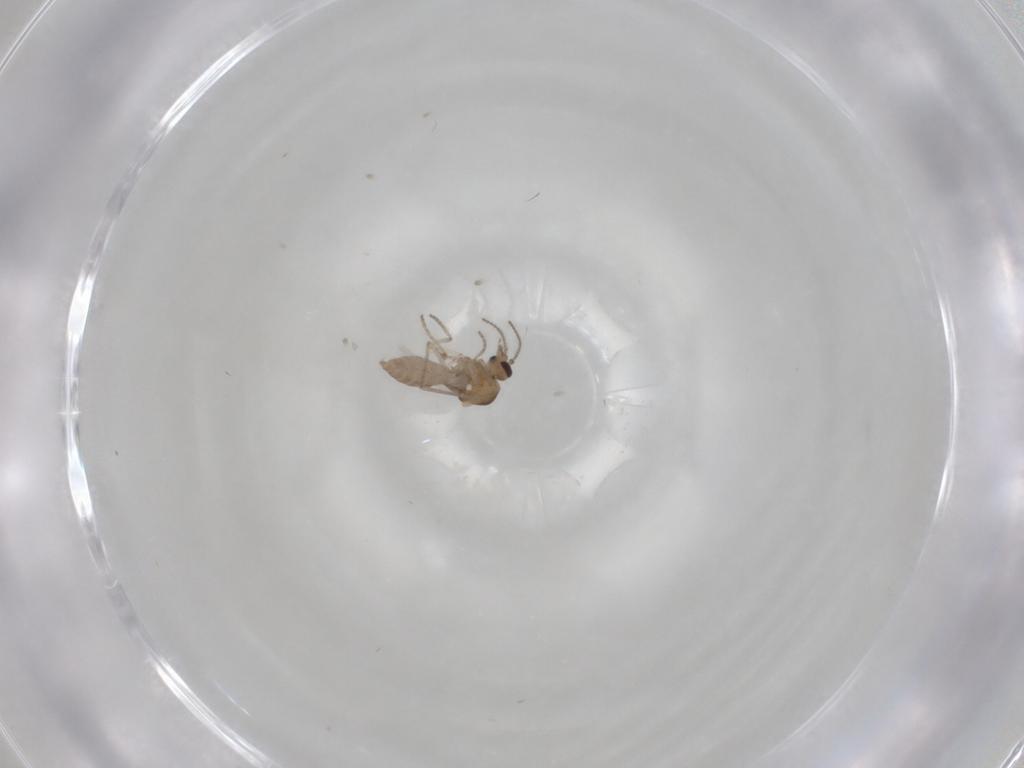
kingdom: Animalia
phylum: Arthropoda
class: Insecta
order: Diptera
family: Ceratopogonidae
